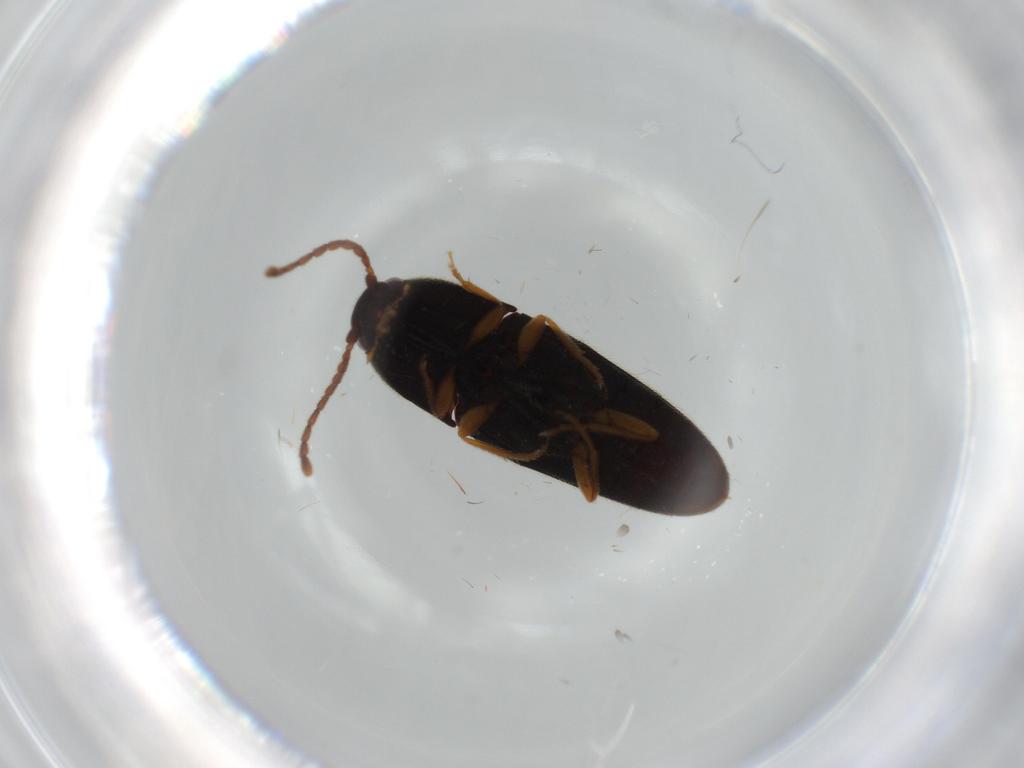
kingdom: Animalia
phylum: Arthropoda
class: Insecta
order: Coleoptera
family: Elateridae
